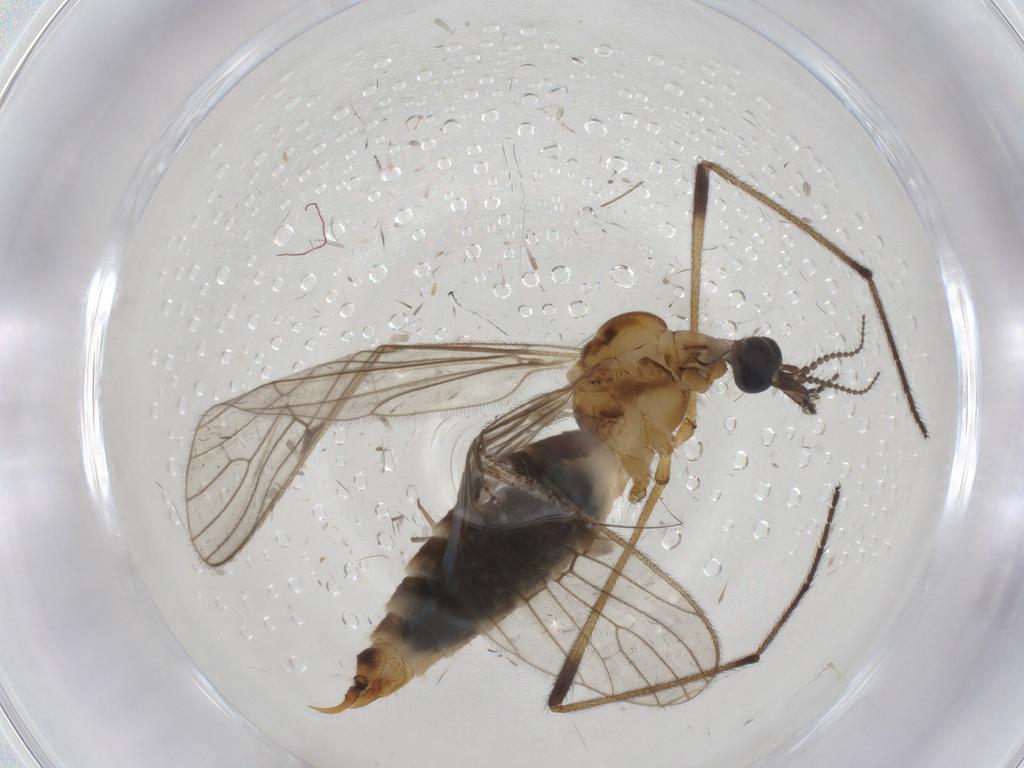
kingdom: Animalia
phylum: Arthropoda
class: Insecta
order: Diptera
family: Limoniidae
